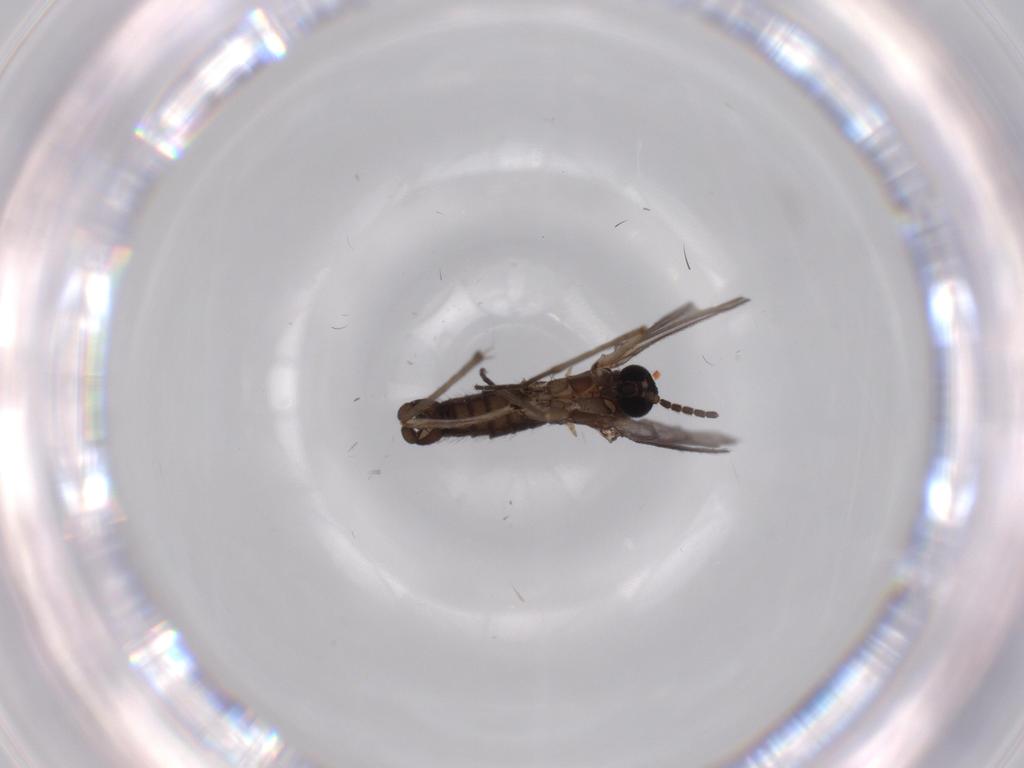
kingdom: Animalia
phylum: Arthropoda
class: Insecta
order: Diptera
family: Sciaridae
